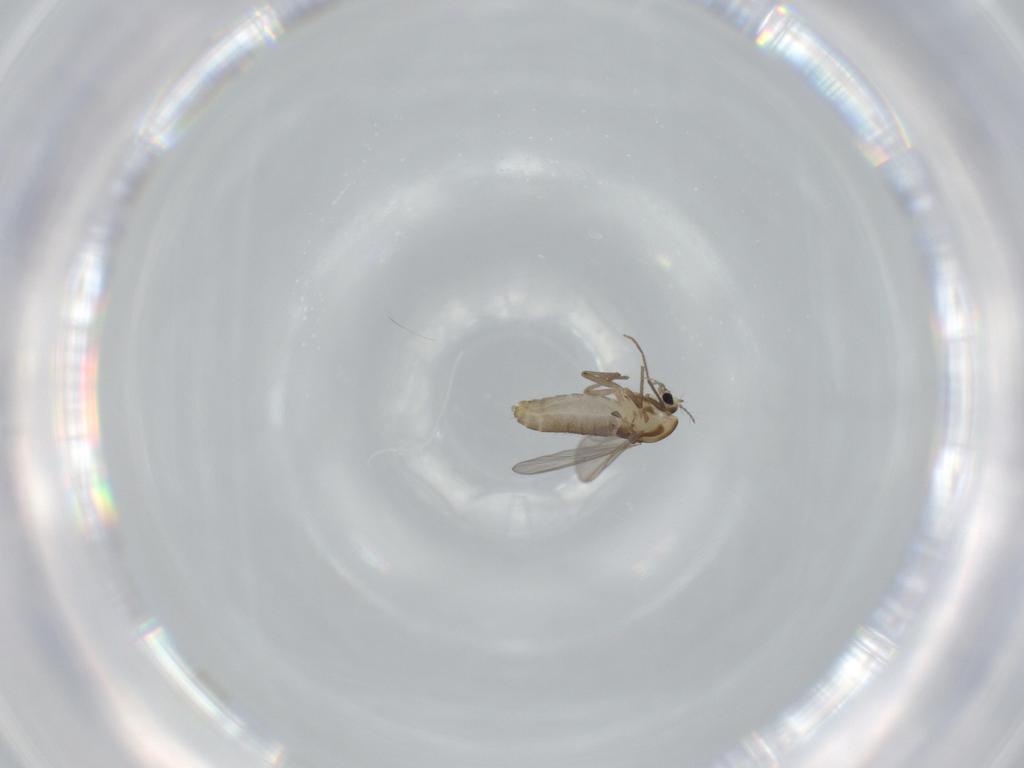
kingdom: Animalia
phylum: Arthropoda
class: Insecta
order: Diptera
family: Chironomidae
